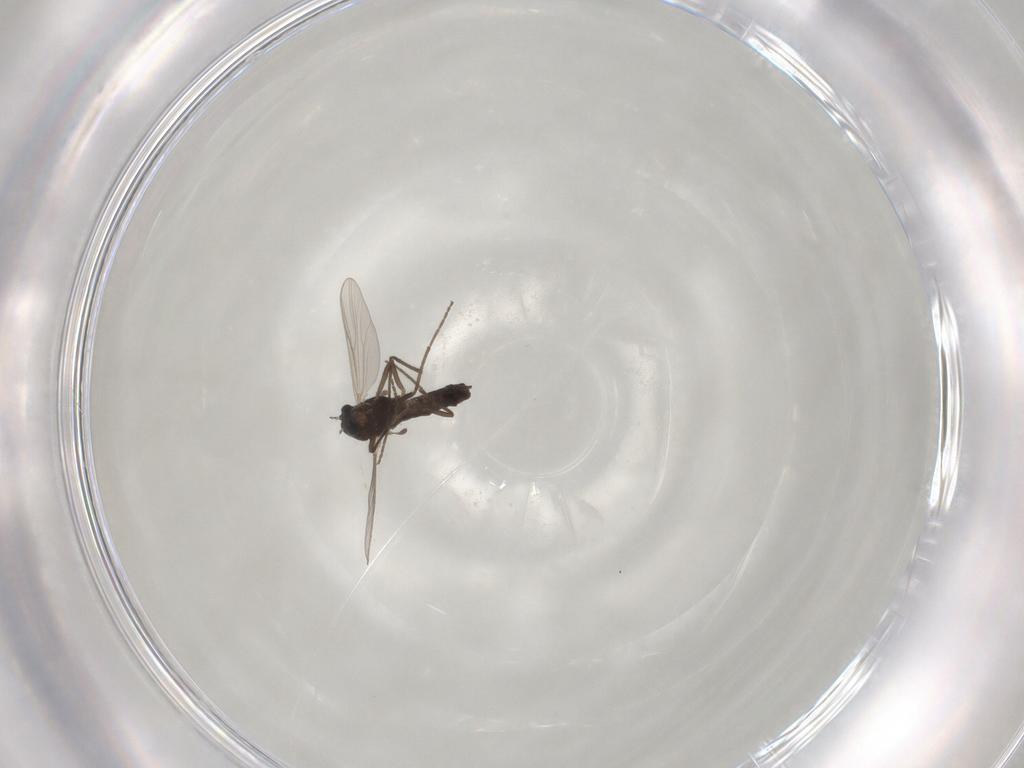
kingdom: Animalia
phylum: Arthropoda
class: Insecta
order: Diptera
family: Chironomidae
